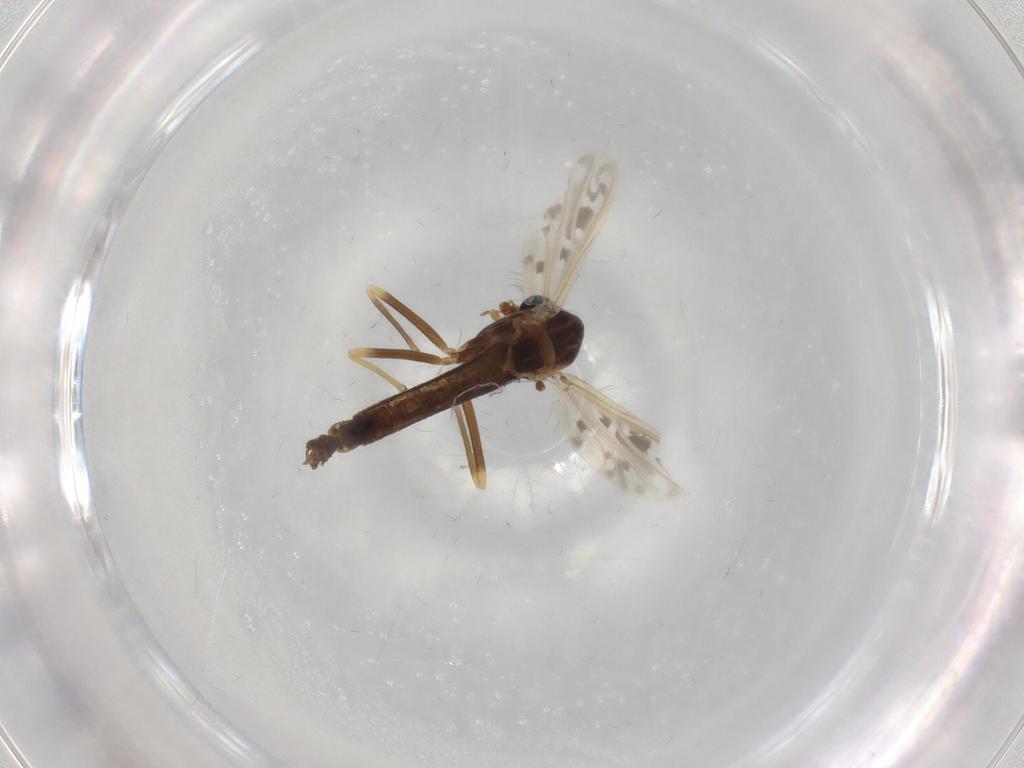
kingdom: Animalia
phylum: Arthropoda
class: Insecta
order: Diptera
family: Chironomidae
